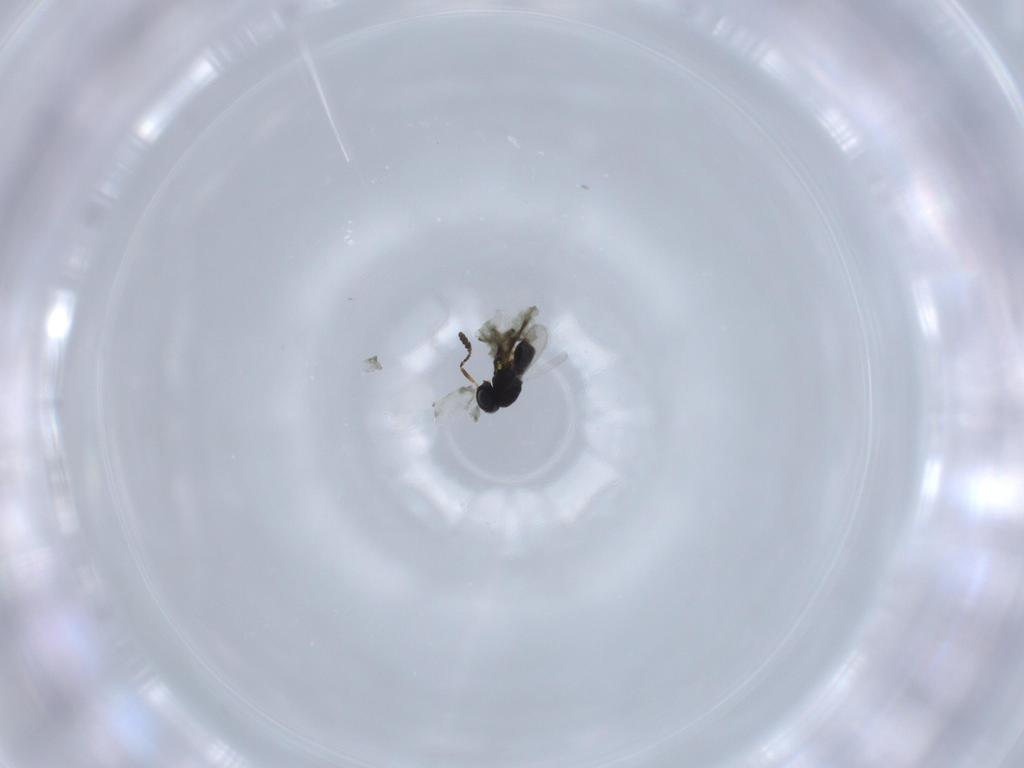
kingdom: Animalia
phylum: Arthropoda
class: Insecta
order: Hymenoptera
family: Scelionidae
